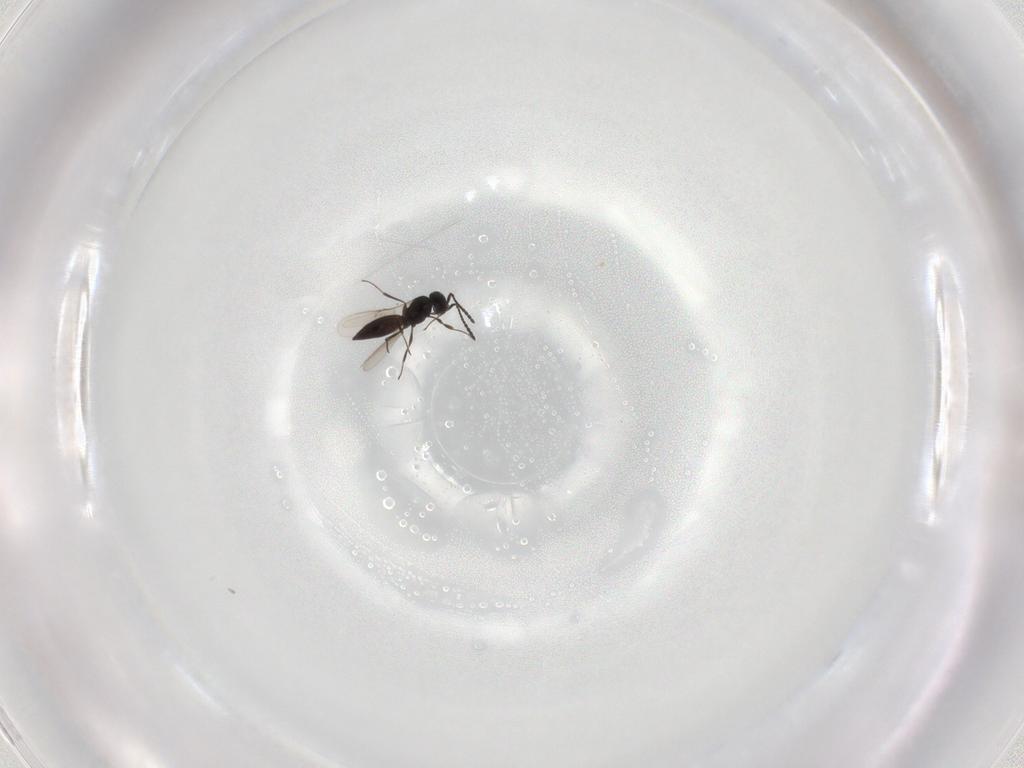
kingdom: Animalia
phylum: Arthropoda
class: Insecta
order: Hymenoptera
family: Scelionidae
